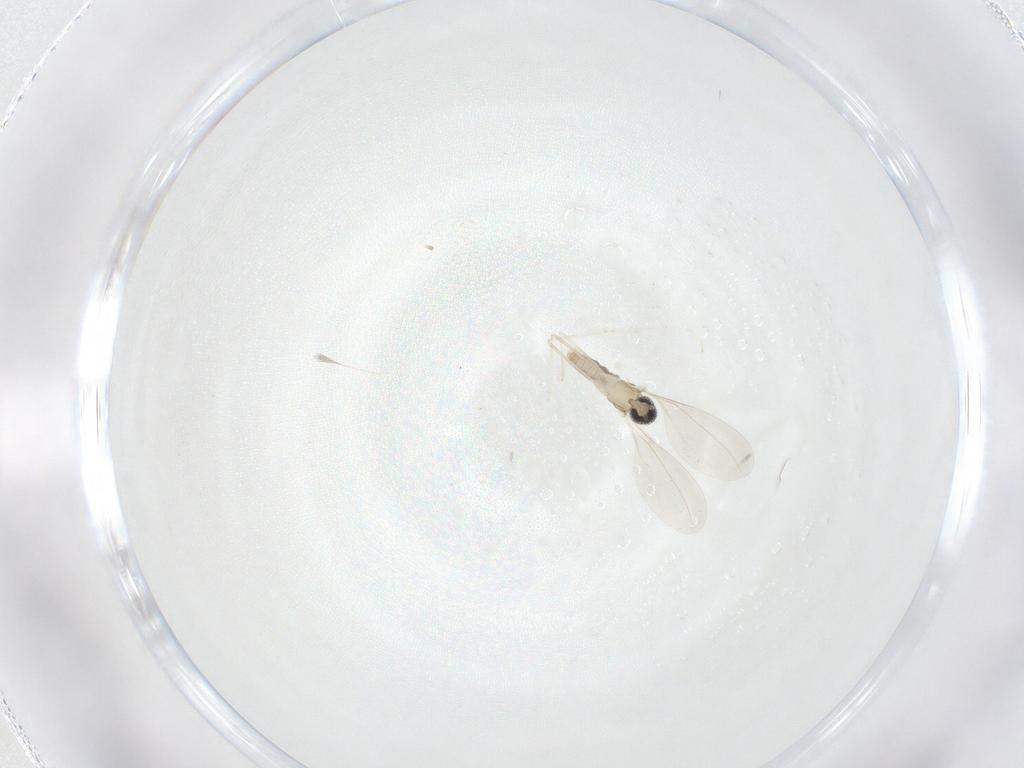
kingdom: Animalia
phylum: Arthropoda
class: Insecta
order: Diptera
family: Cecidomyiidae
